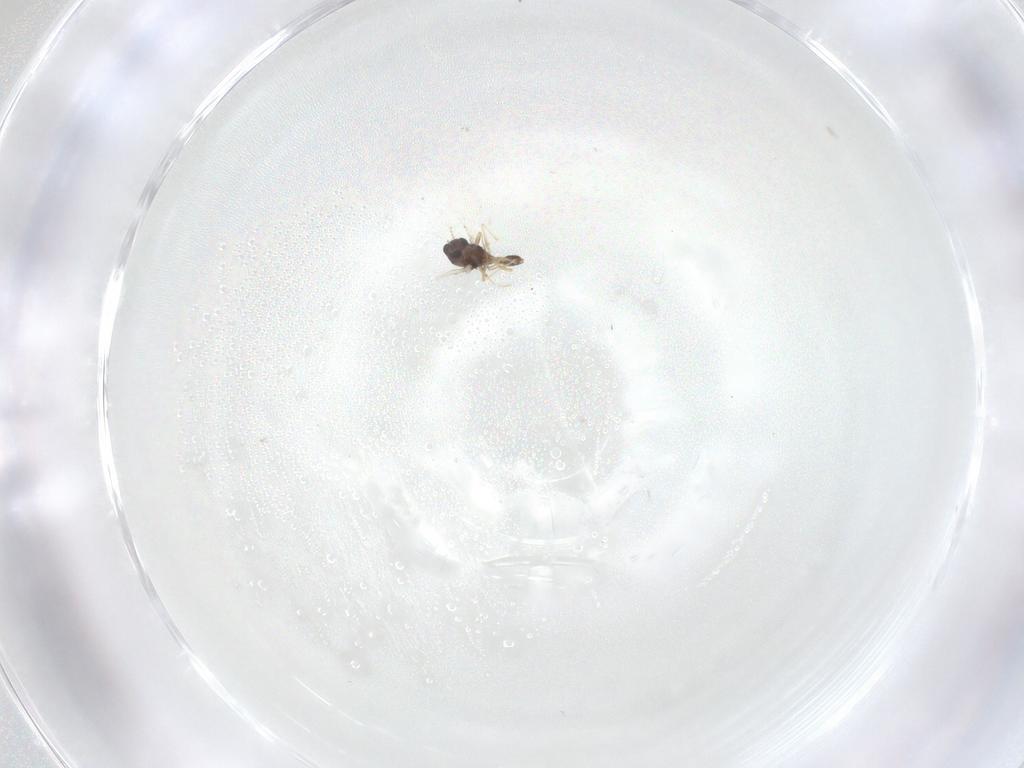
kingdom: Animalia
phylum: Arthropoda
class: Insecta
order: Diptera
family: Chironomidae
